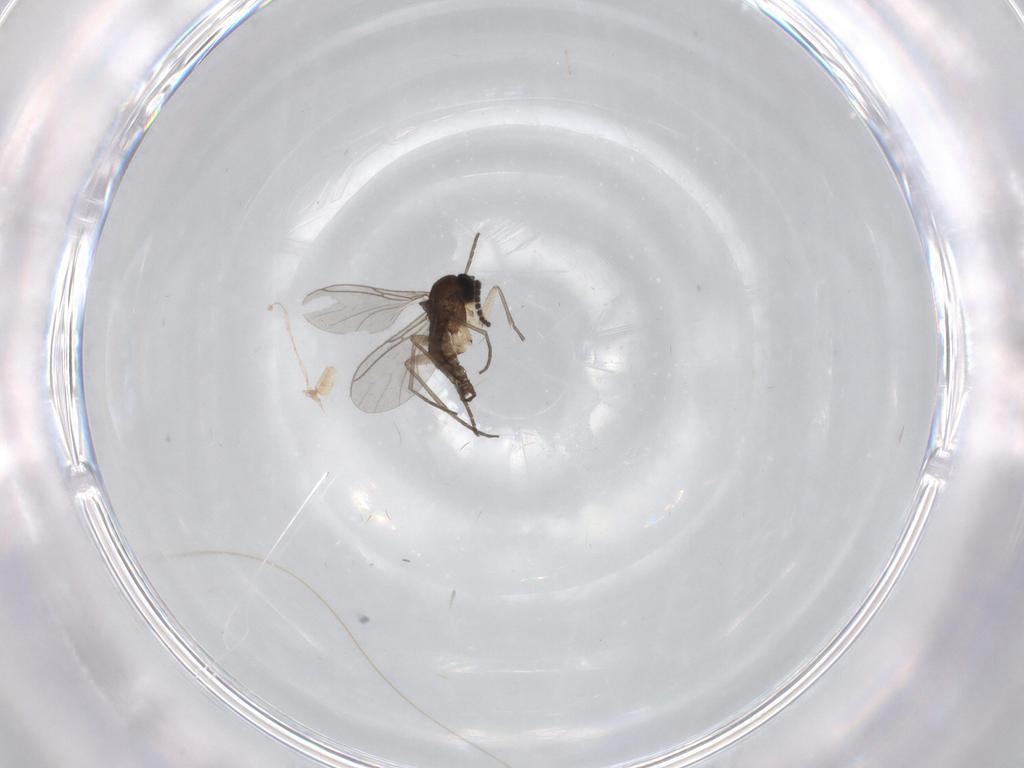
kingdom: Animalia
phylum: Arthropoda
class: Insecta
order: Diptera
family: Sciaridae
